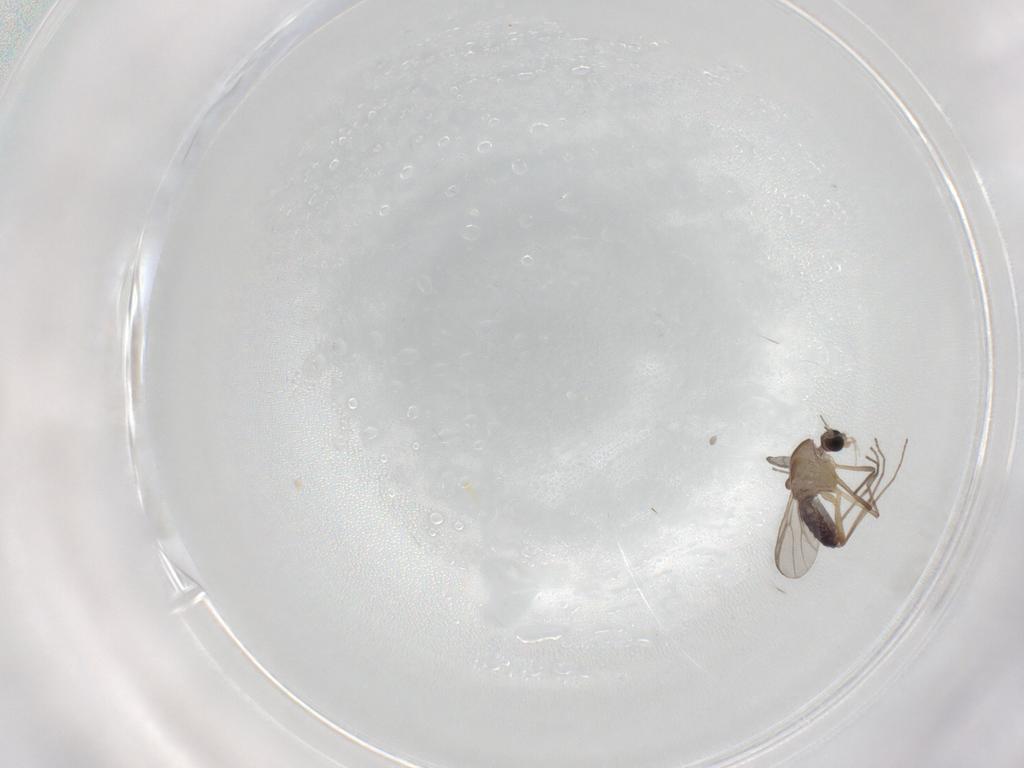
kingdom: Animalia
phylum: Arthropoda
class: Insecta
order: Diptera
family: Chironomidae
